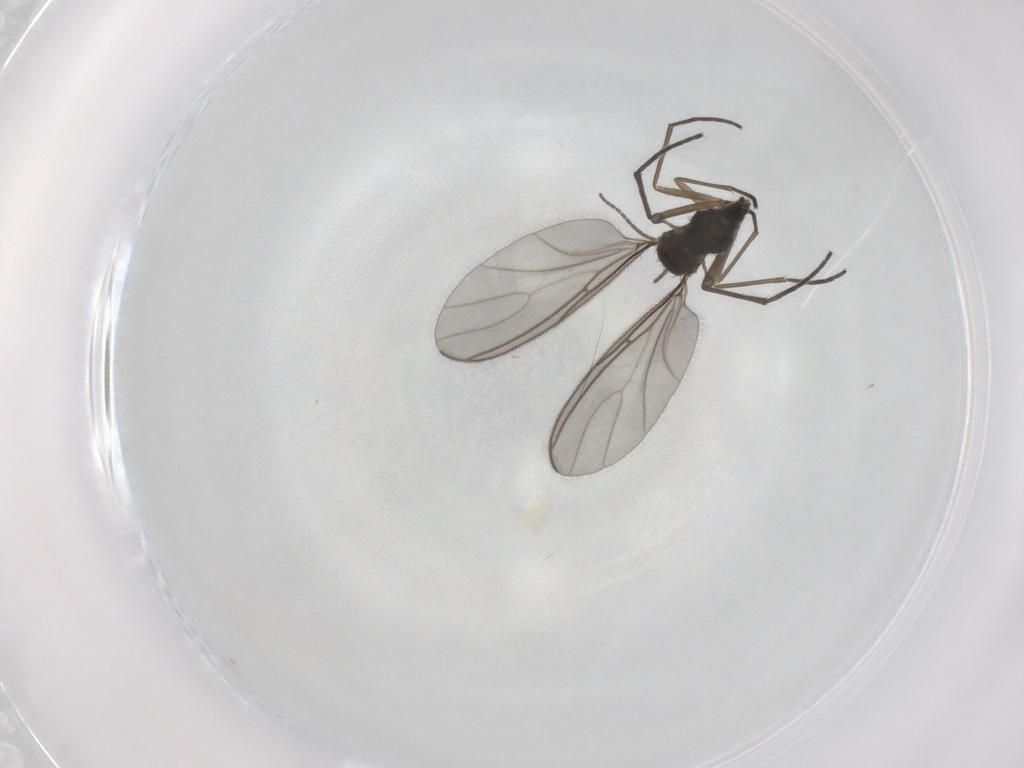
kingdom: Animalia
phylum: Arthropoda
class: Insecta
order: Diptera
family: Sciaridae
